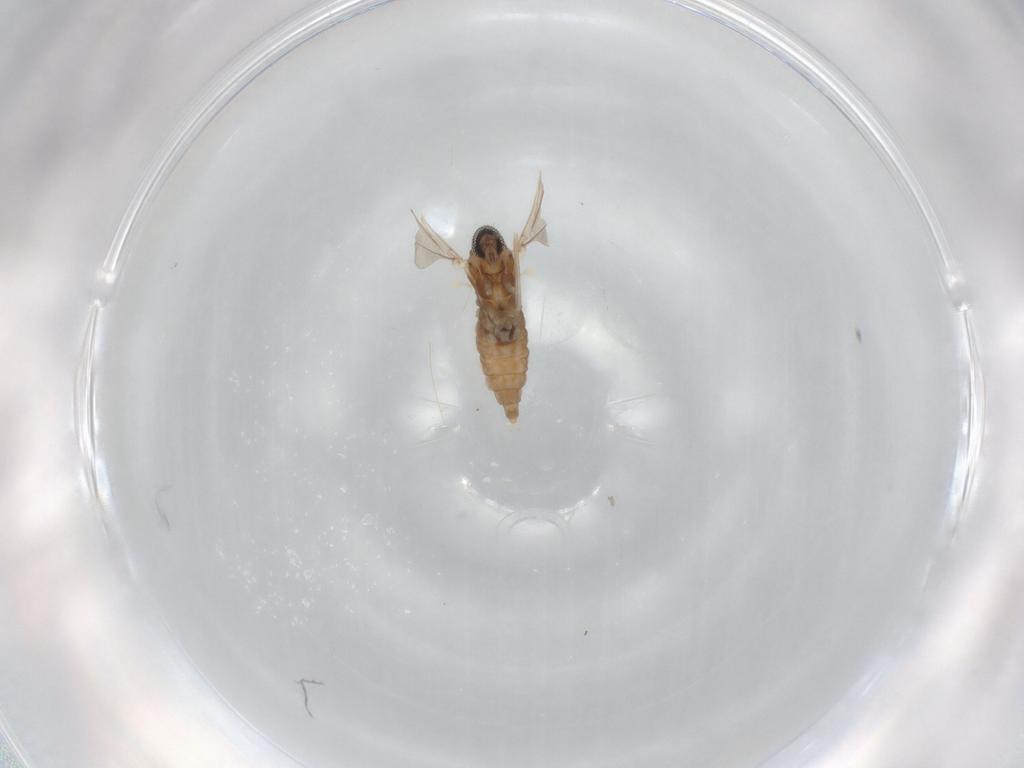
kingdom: Animalia
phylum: Arthropoda
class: Insecta
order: Diptera
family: Cecidomyiidae
